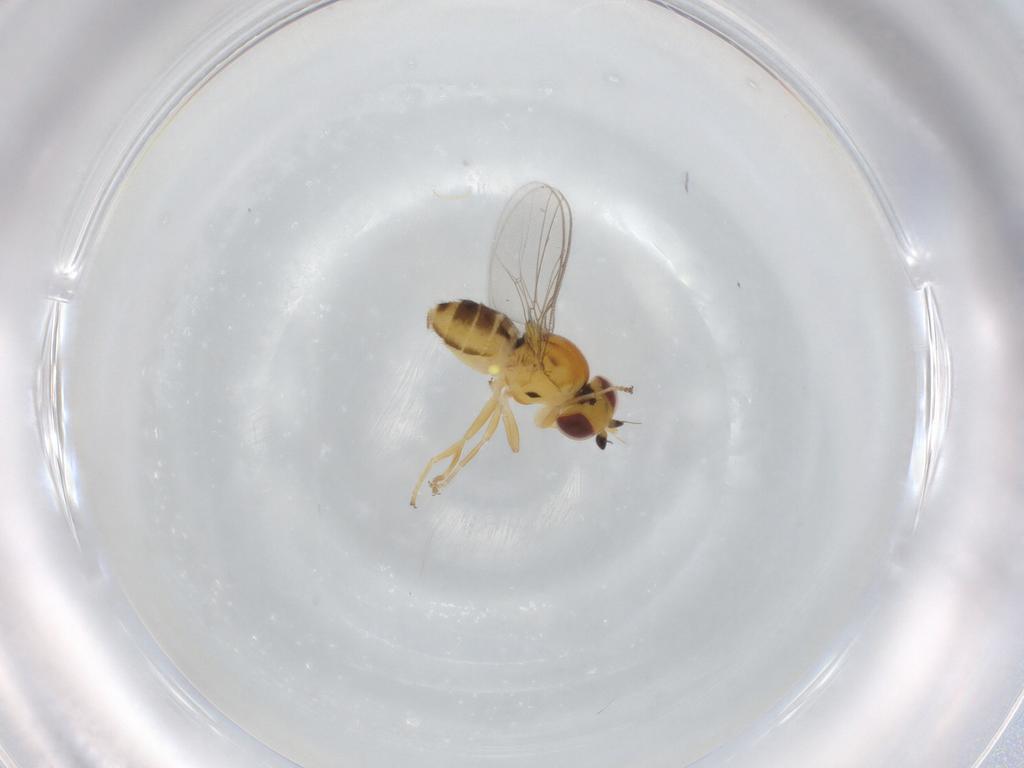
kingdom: Animalia
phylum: Arthropoda
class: Insecta
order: Diptera
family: Chloropidae
